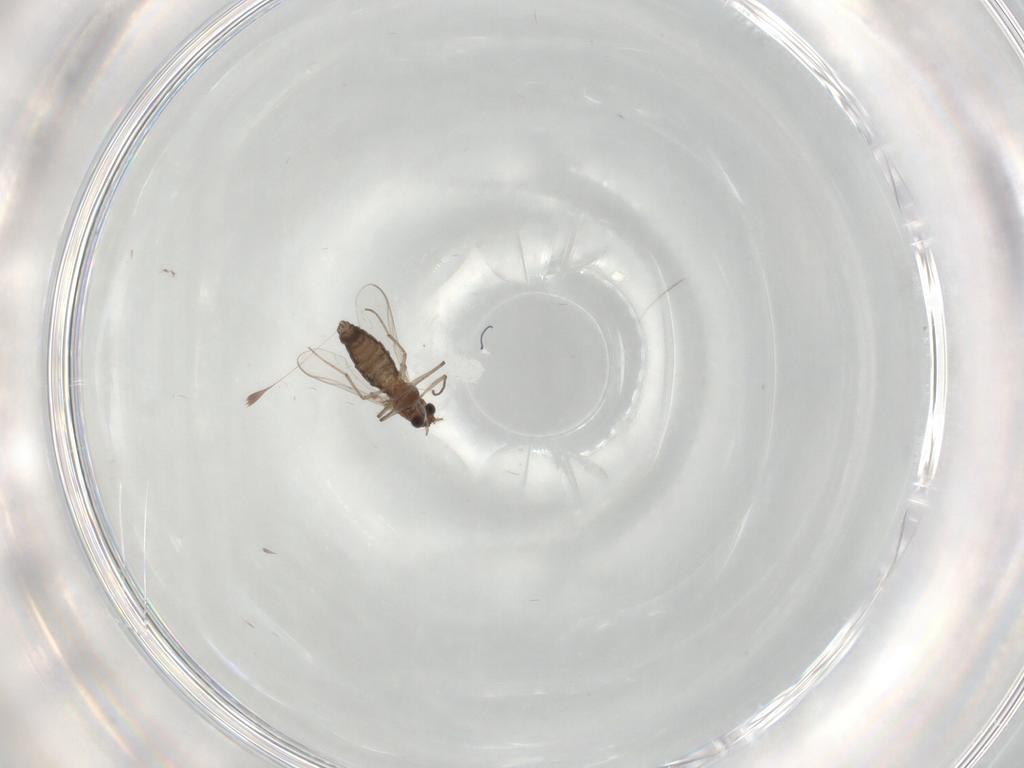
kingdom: Animalia
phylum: Arthropoda
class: Insecta
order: Diptera
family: Chironomidae
